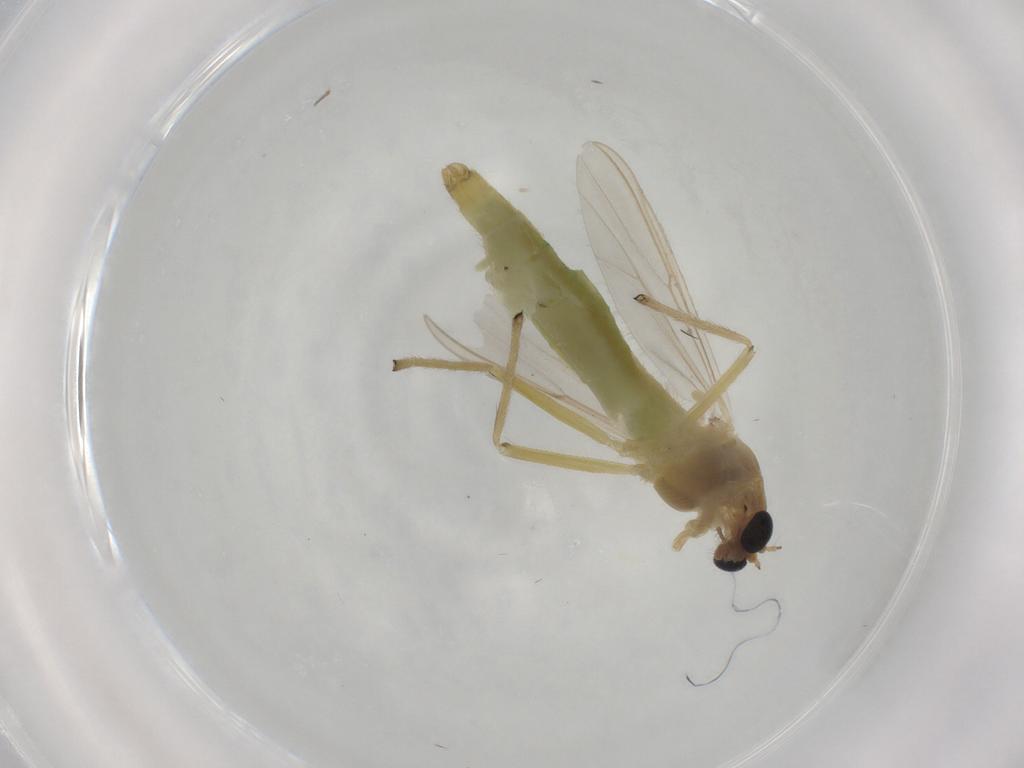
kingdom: Animalia
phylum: Arthropoda
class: Insecta
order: Diptera
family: Chironomidae
